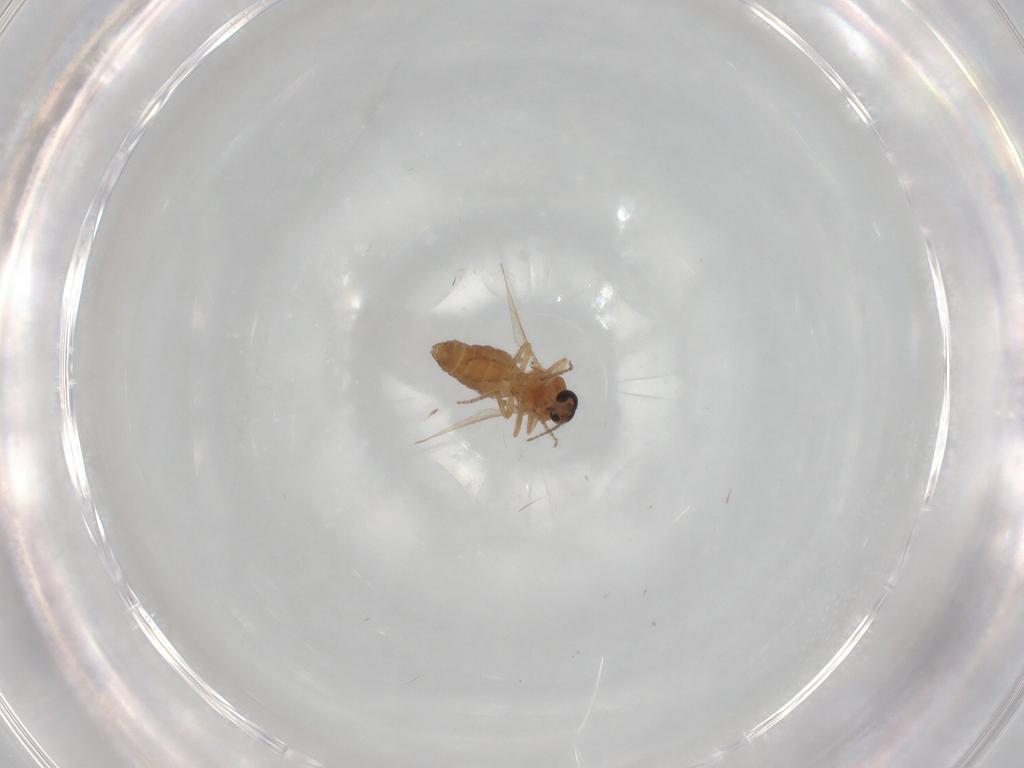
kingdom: Animalia
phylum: Arthropoda
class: Insecta
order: Diptera
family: Ceratopogonidae
